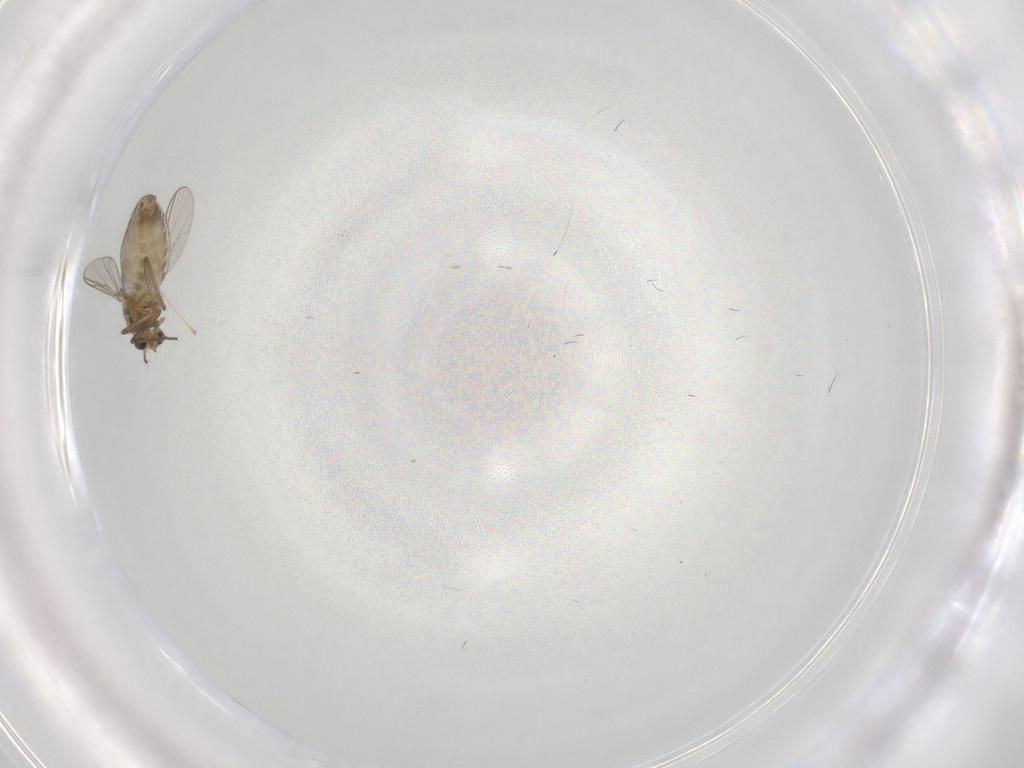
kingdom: Animalia
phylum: Arthropoda
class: Insecta
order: Diptera
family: Chironomidae
